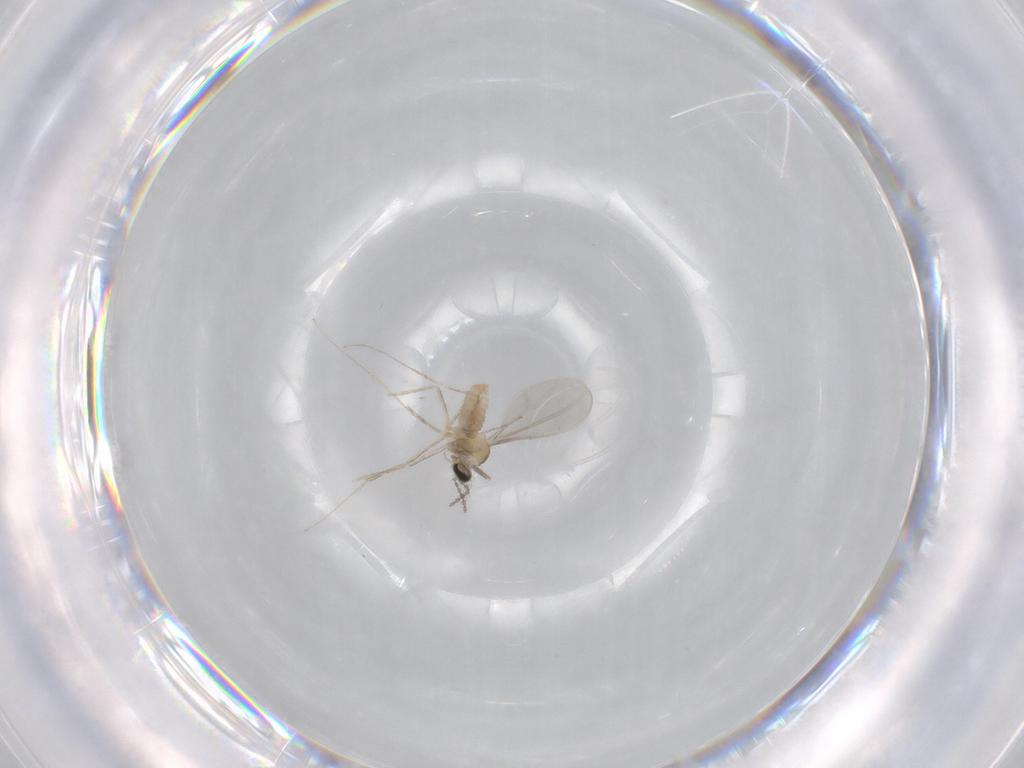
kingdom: Animalia
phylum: Arthropoda
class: Insecta
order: Diptera
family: Cecidomyiidae
